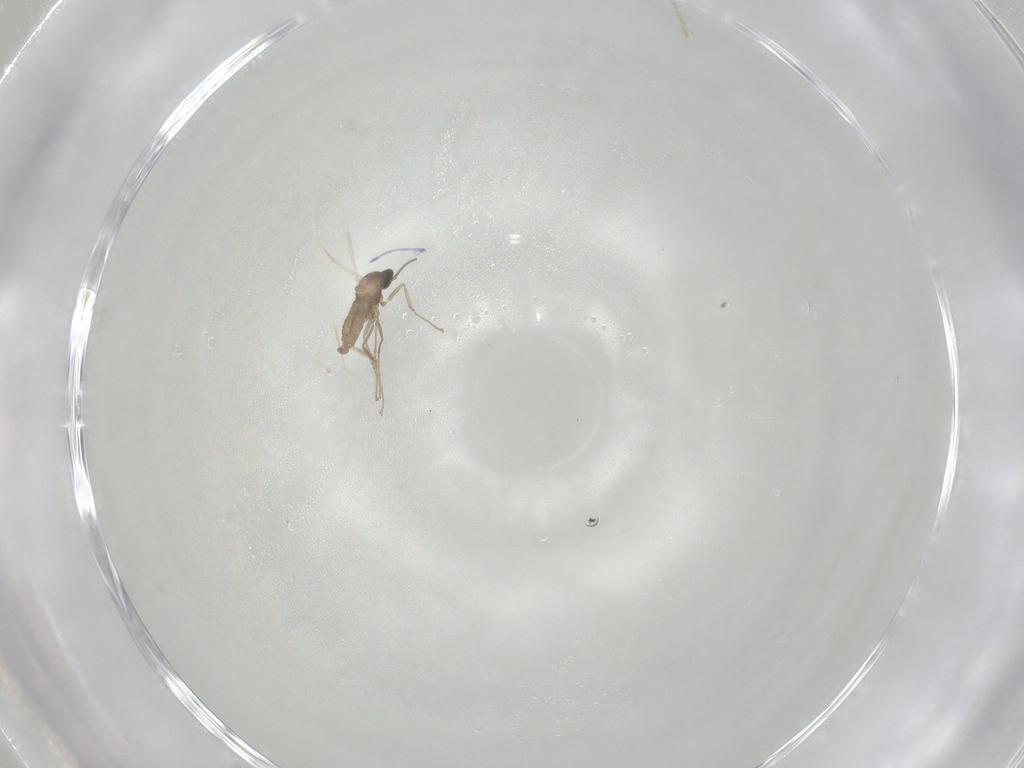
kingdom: Animalia
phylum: Arthropoda
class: Insecta
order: Diptera
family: Cecidomyiidae
